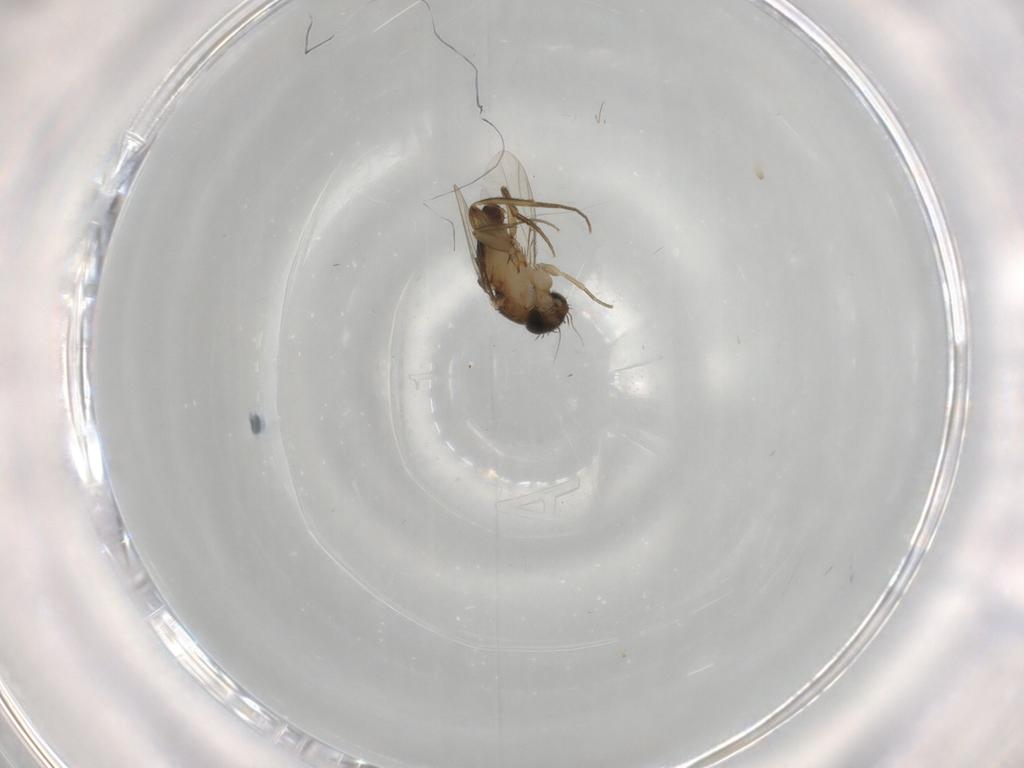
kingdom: Animalia
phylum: Arthropoda
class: Insecta
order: Diptera
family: Phoridae
